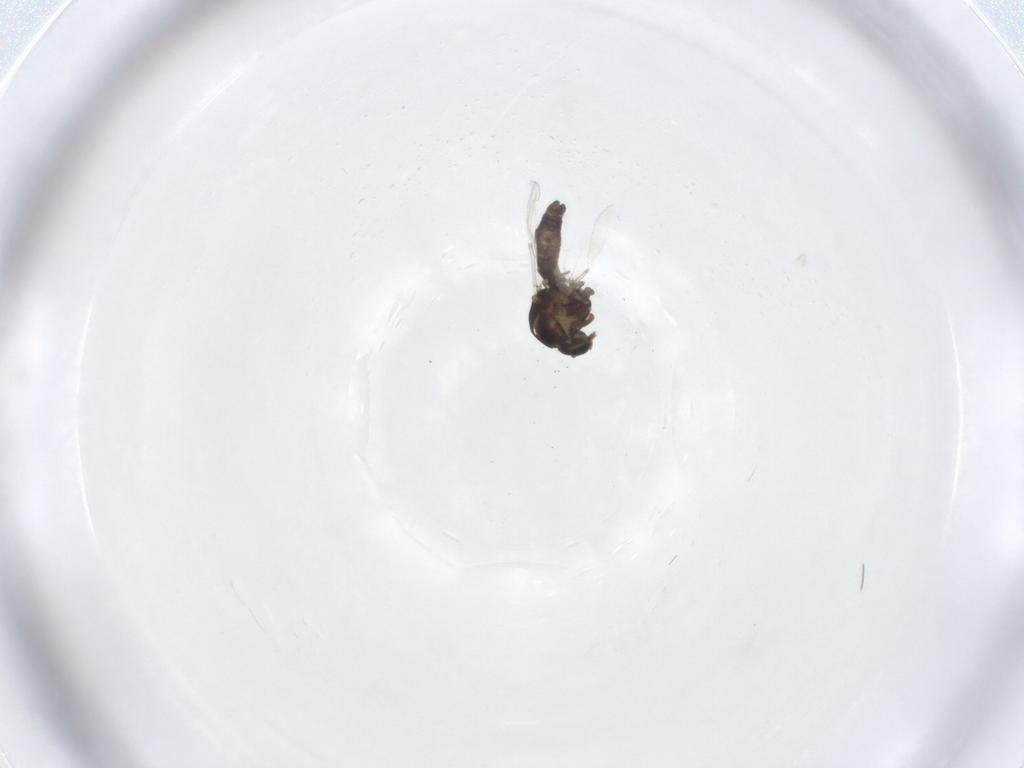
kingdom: Animalia
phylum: Arthropoda
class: Insecta
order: Diptera
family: Ceratopogonidae
